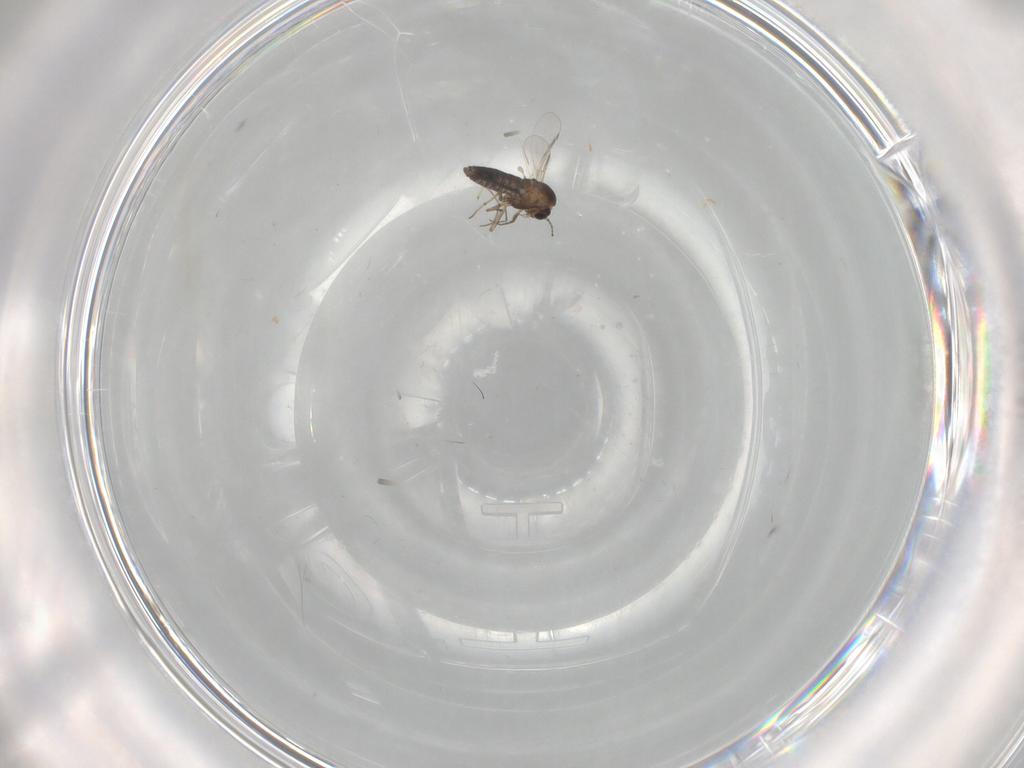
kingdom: Animalia
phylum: Arthropoda
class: Insecta
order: Diptera
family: Chironomidae
